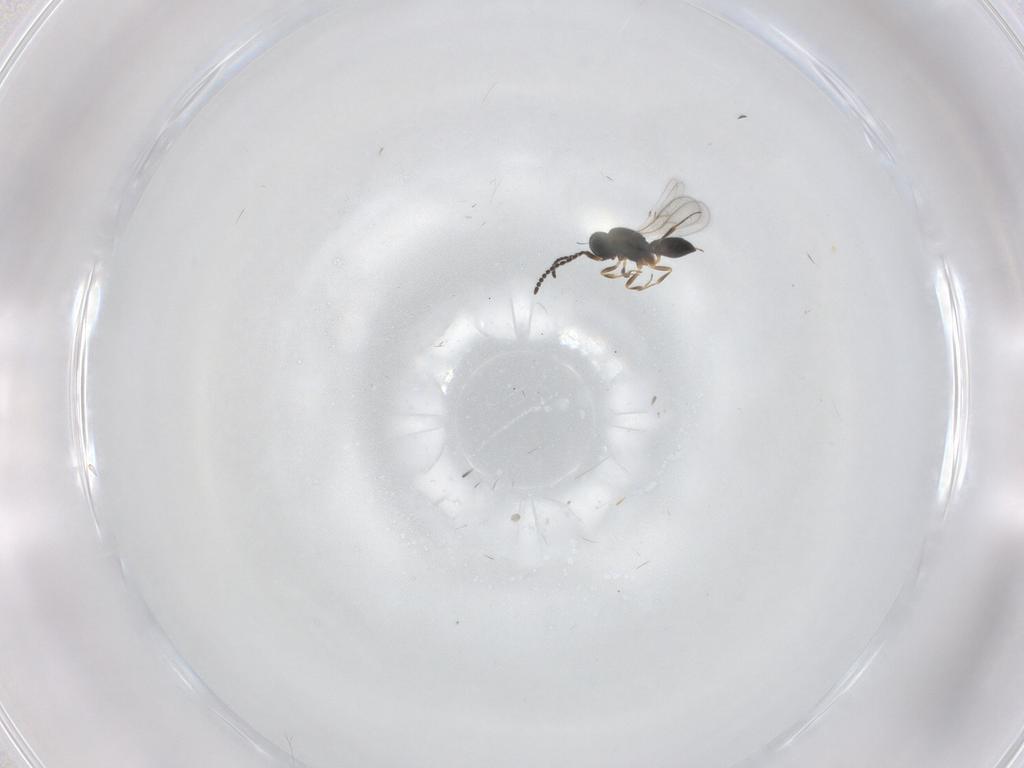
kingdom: Animalia
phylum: Arthropoda
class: Insecta
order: Hymenoptera
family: Scelionidae
